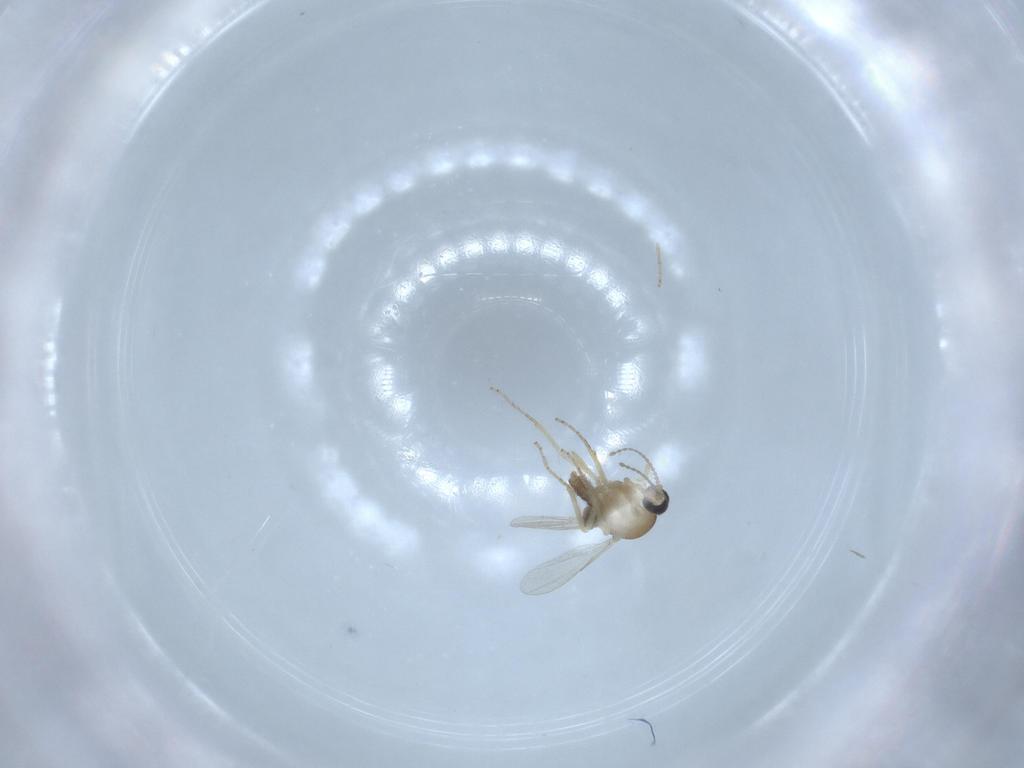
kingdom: Animalia
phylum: Arthropoda
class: Insecta
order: Diptera
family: Ceratopogonidae
